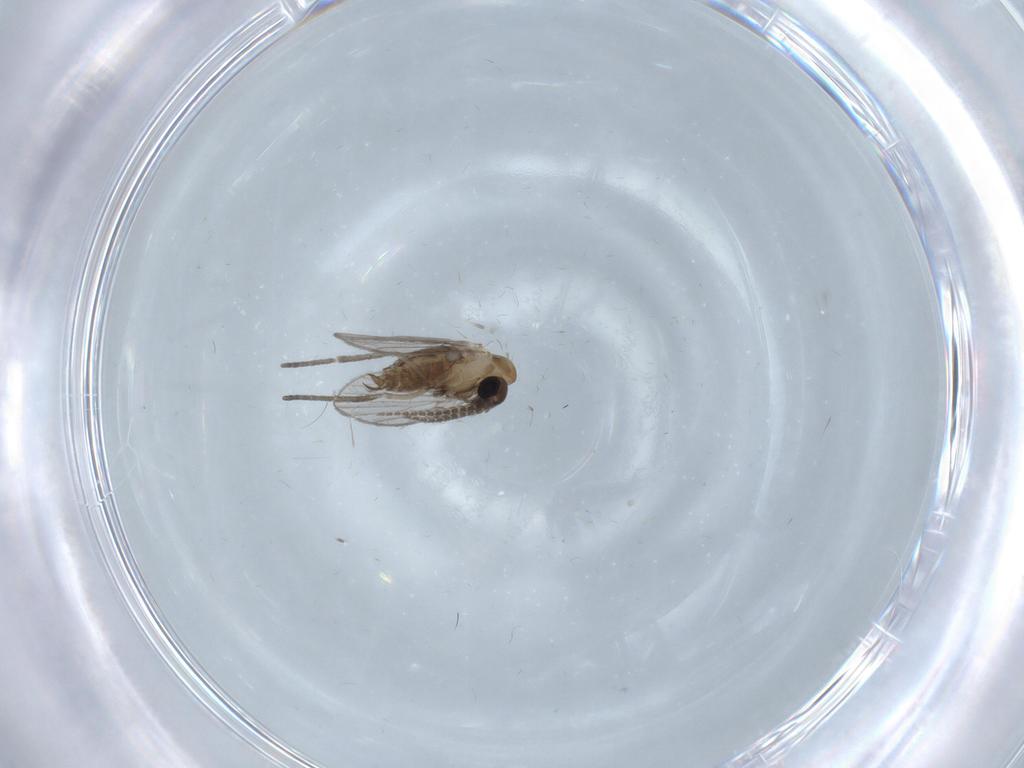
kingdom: Animalia
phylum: Arthropoda
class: Insecta
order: Diptera
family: Psychodidae
